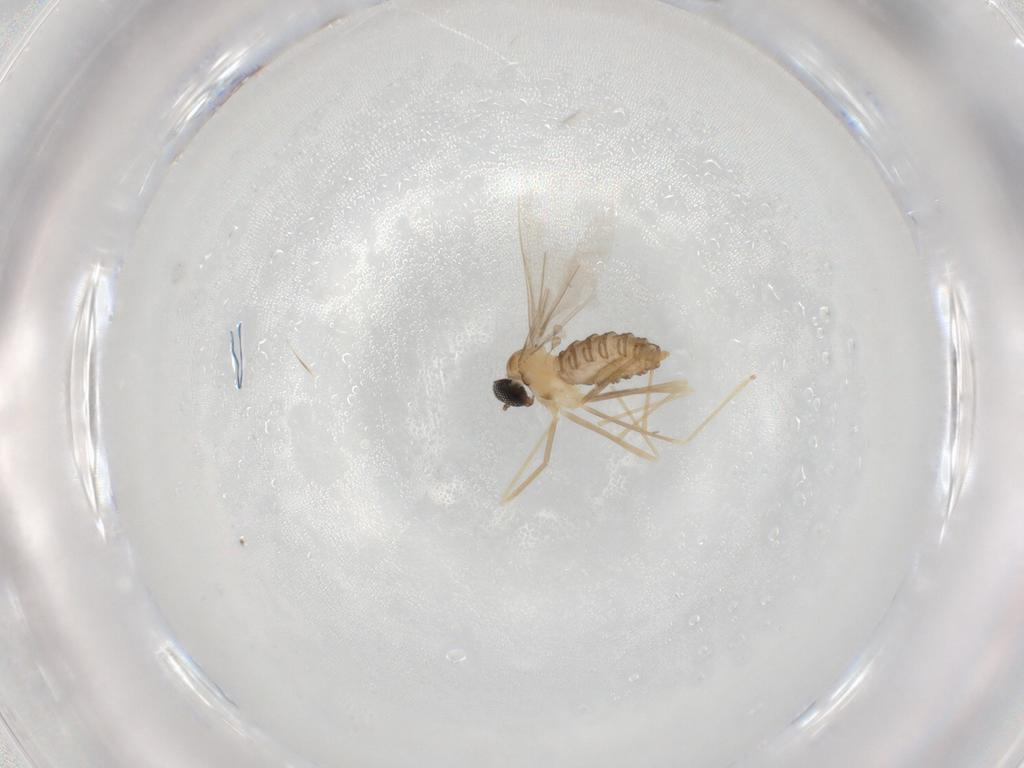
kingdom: Animalia
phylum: Arthropoda
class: Insecta
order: Diptera
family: Cecidomyiidae
